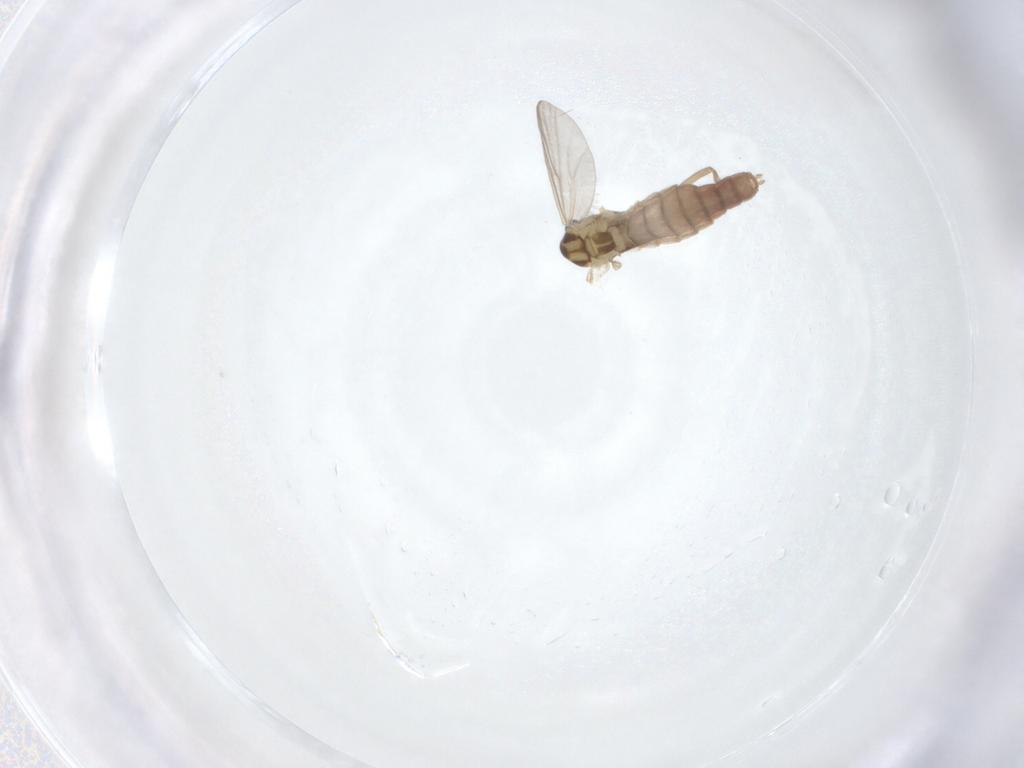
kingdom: Animalia
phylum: Arthropoda
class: Insecta
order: Diptera
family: Chironomidae
